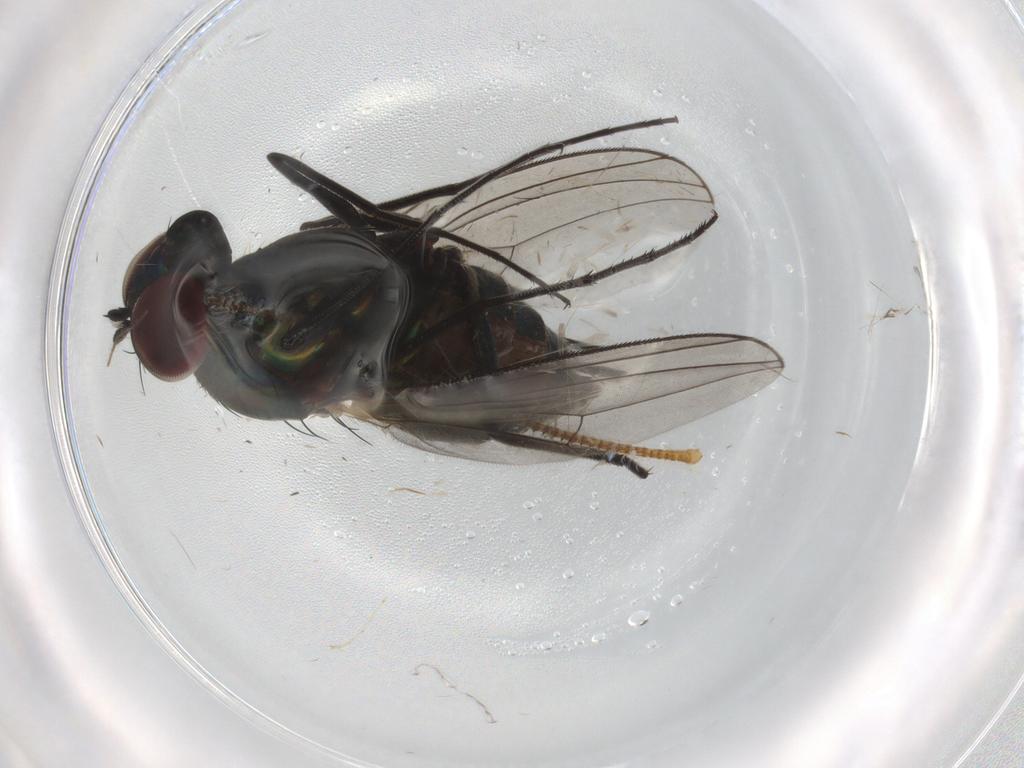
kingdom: Animalia
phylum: Arthropoda
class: Insecta
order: Diptera
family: Dolichopodidae
